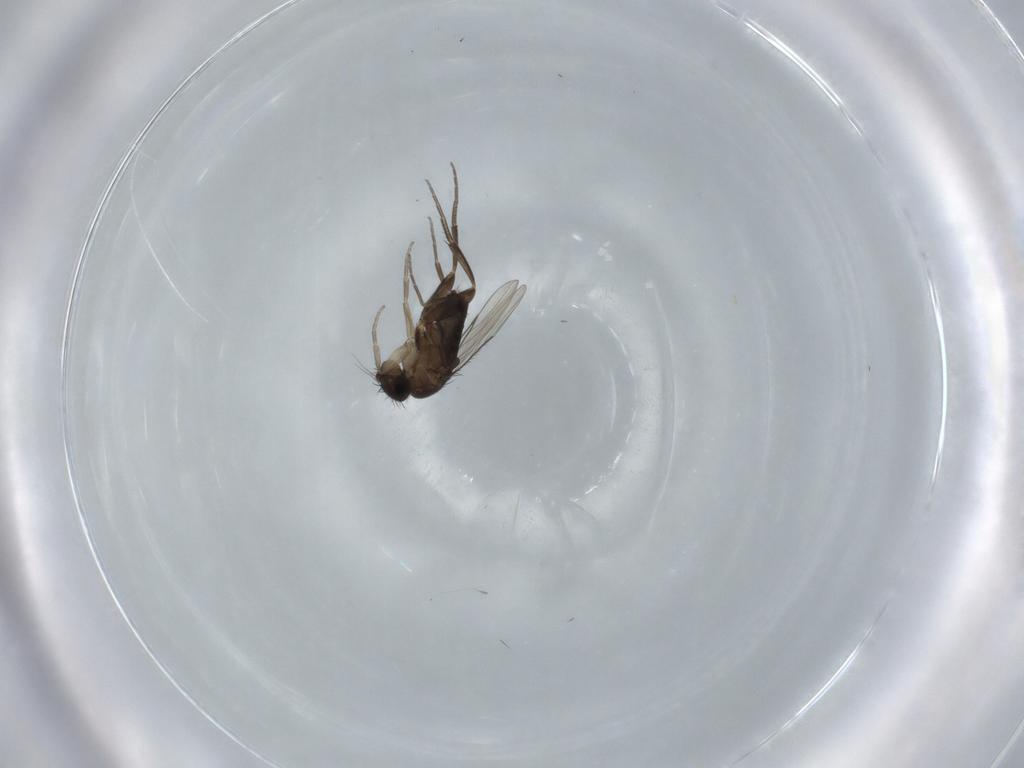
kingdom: Animalia
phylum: Arthropoda
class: Insecta
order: Diptera
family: Phoridae
